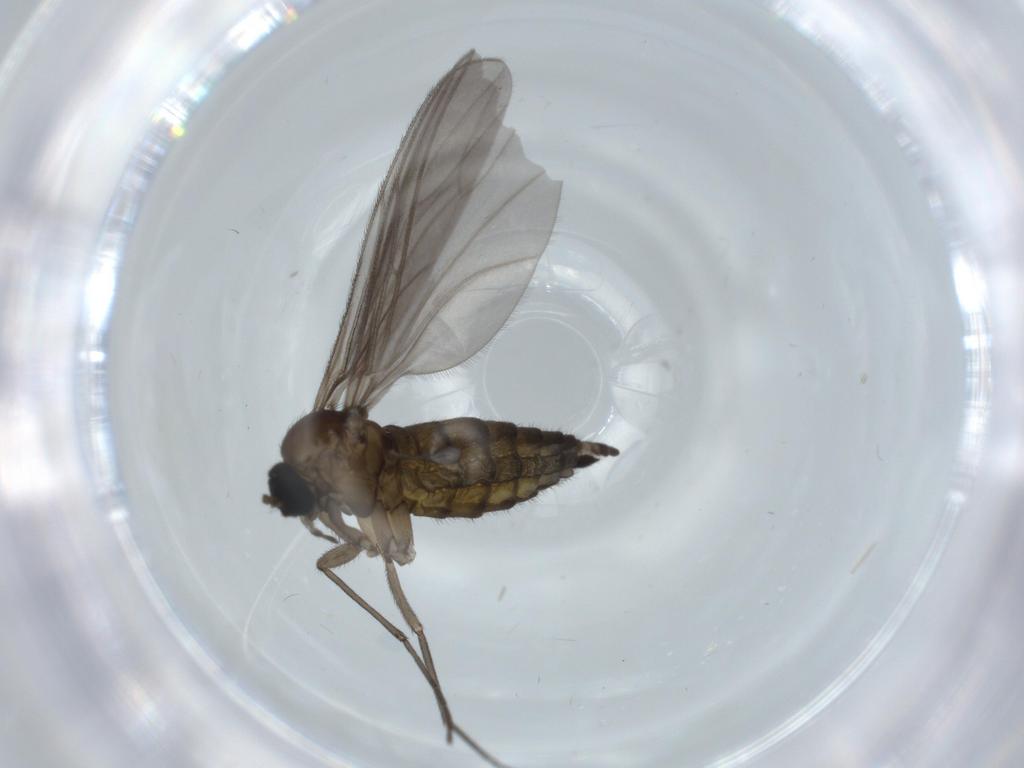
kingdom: Animalia
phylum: Arthropoda
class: Insecta
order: Diptera
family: Sciaridae
